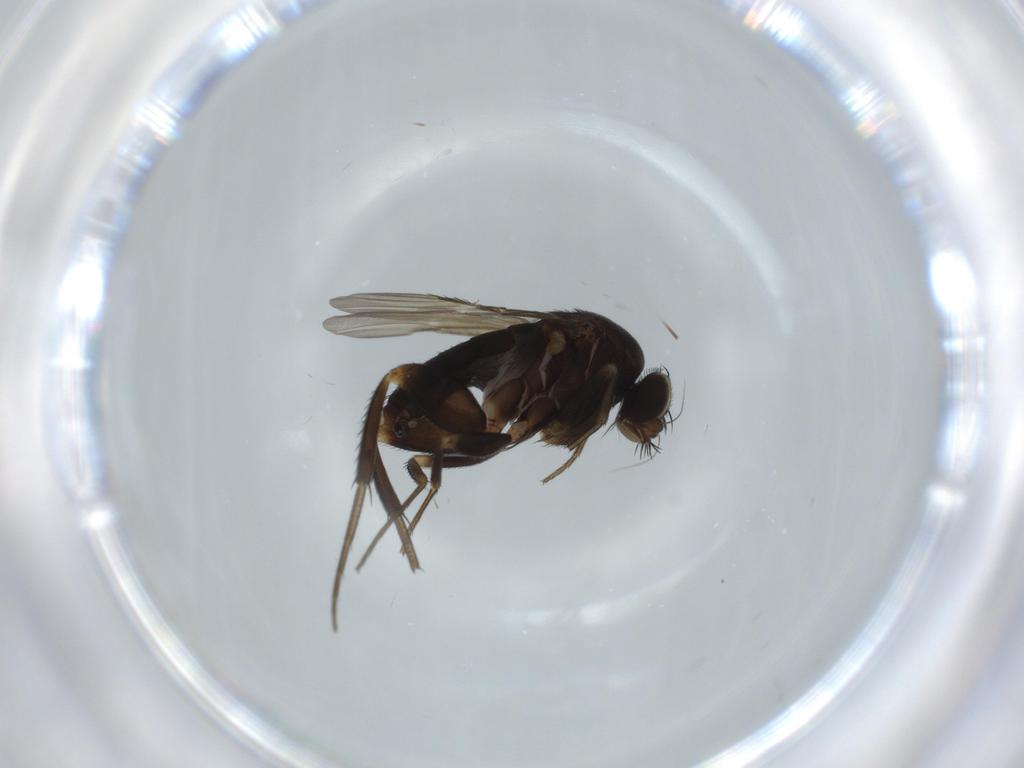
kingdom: Animalia
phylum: Arthropoda
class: Insecta
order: Diptera
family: Phoridae
